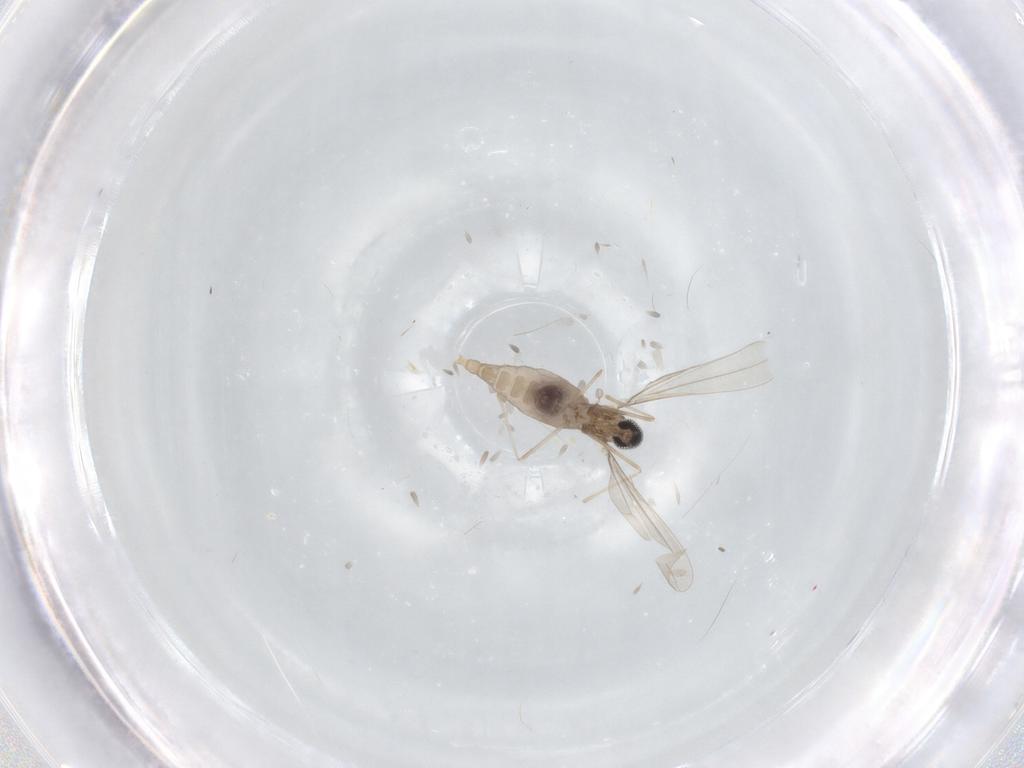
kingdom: Animalia
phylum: Arthropoda
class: Insecta
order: Diptera
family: Cecidomyiidae
